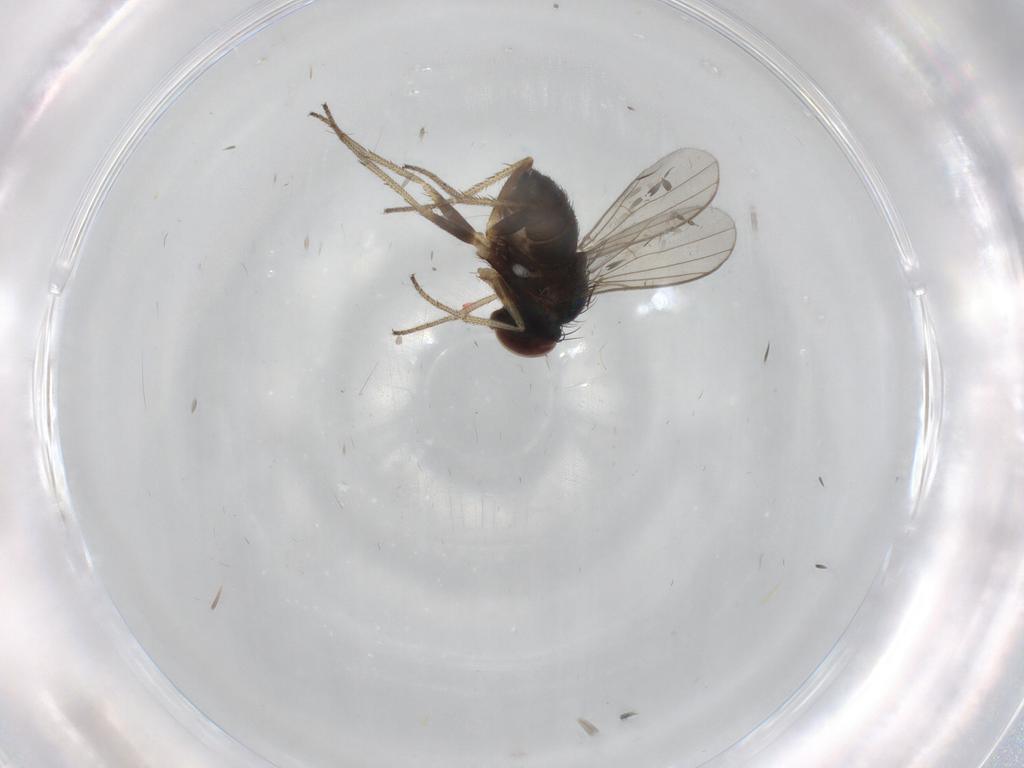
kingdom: Animalia
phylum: Arthropoda
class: Insecta
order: Diptera
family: Dolichopodidae
